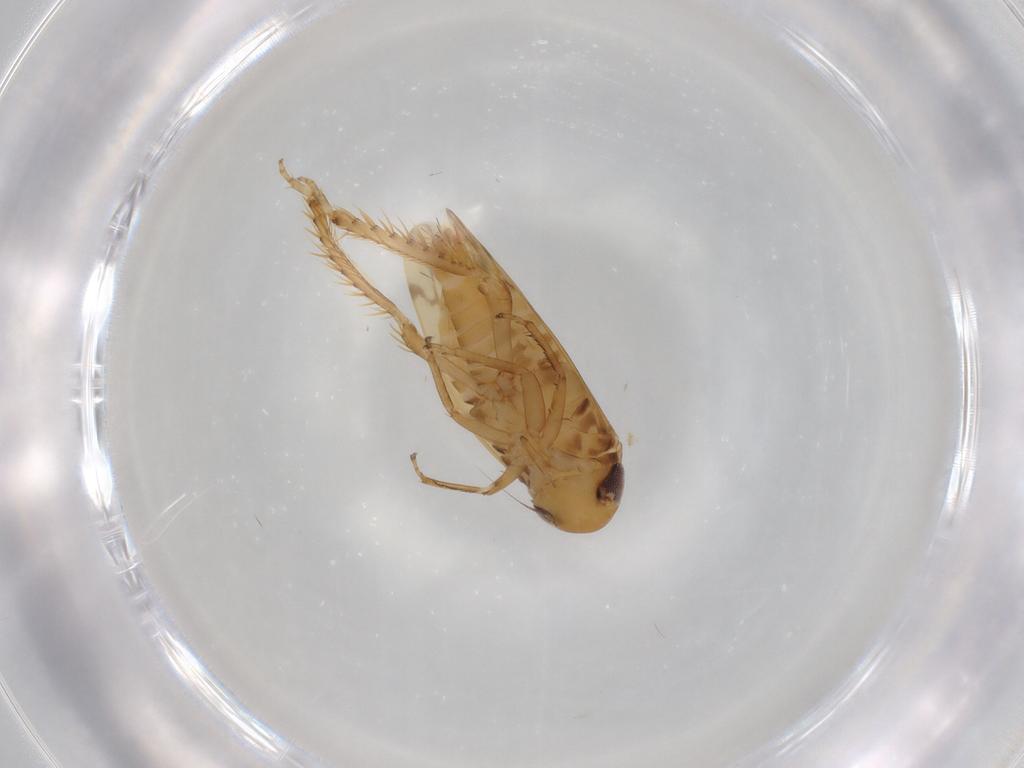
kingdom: Animalia
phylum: Arthropoda
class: Insecta
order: Hemiptera
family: Cicadellidae
